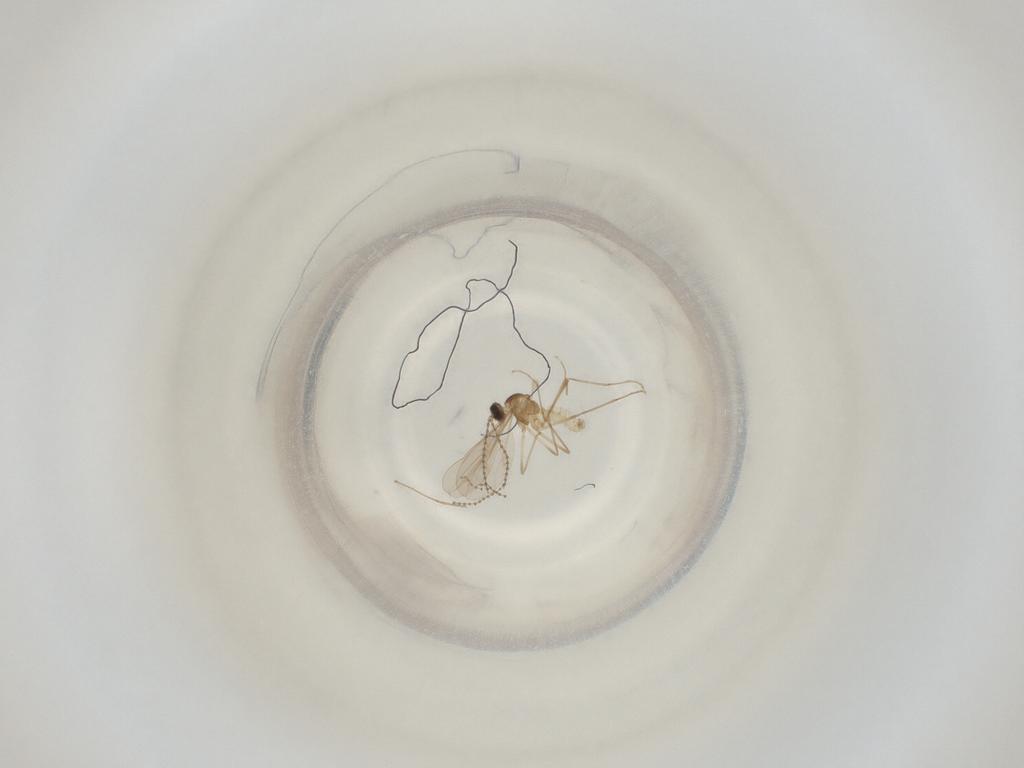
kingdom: Animalia
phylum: Arthropoda
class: Insecta
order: Diptera
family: Cecidomyiidae
